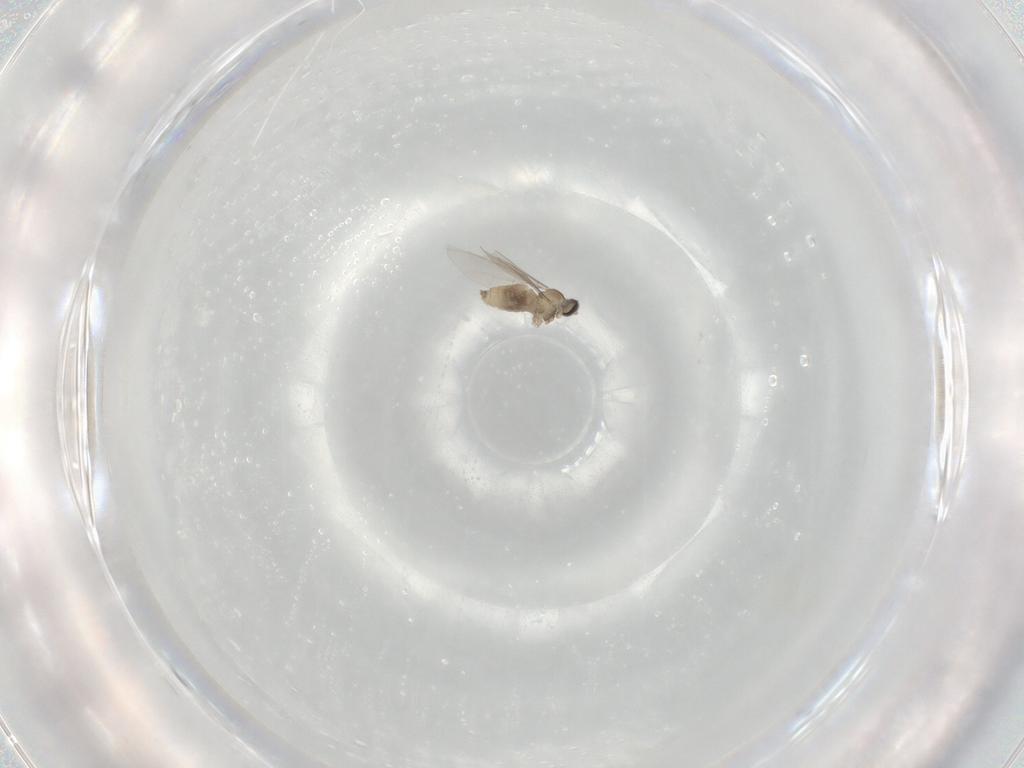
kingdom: Animalia
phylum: Arthropoda
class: Insecta
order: Diptera
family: Cecidomyiidae
